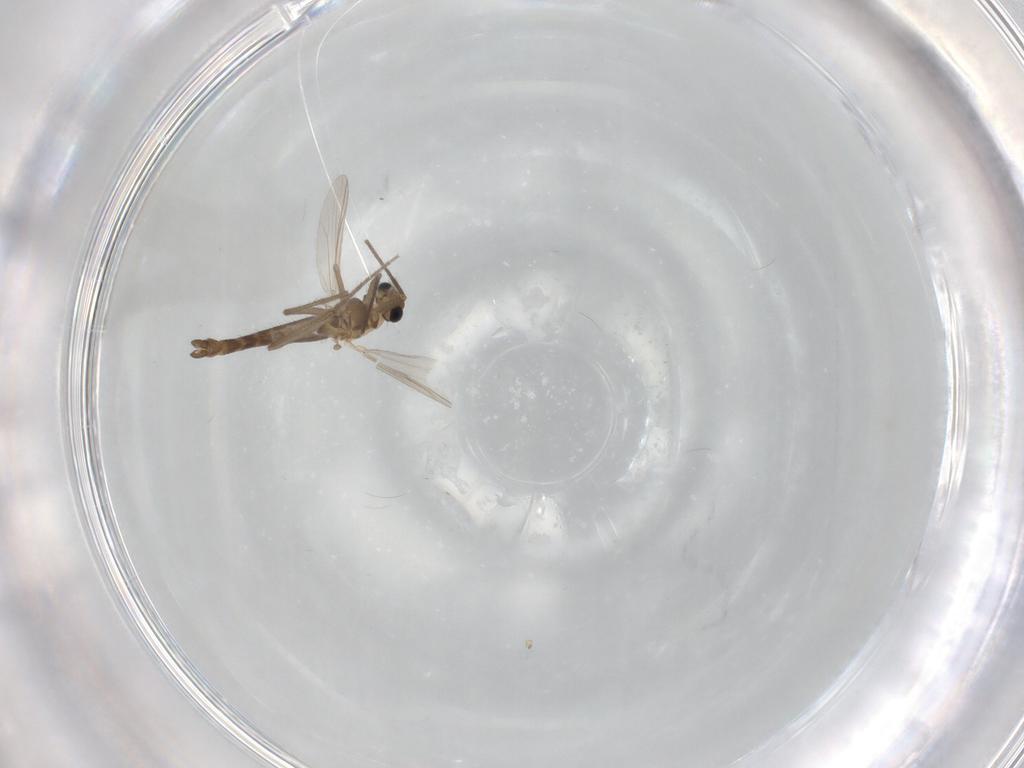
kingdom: Animalia
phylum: Arthropoda
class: Insecta
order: Diptera
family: Chironomidae
